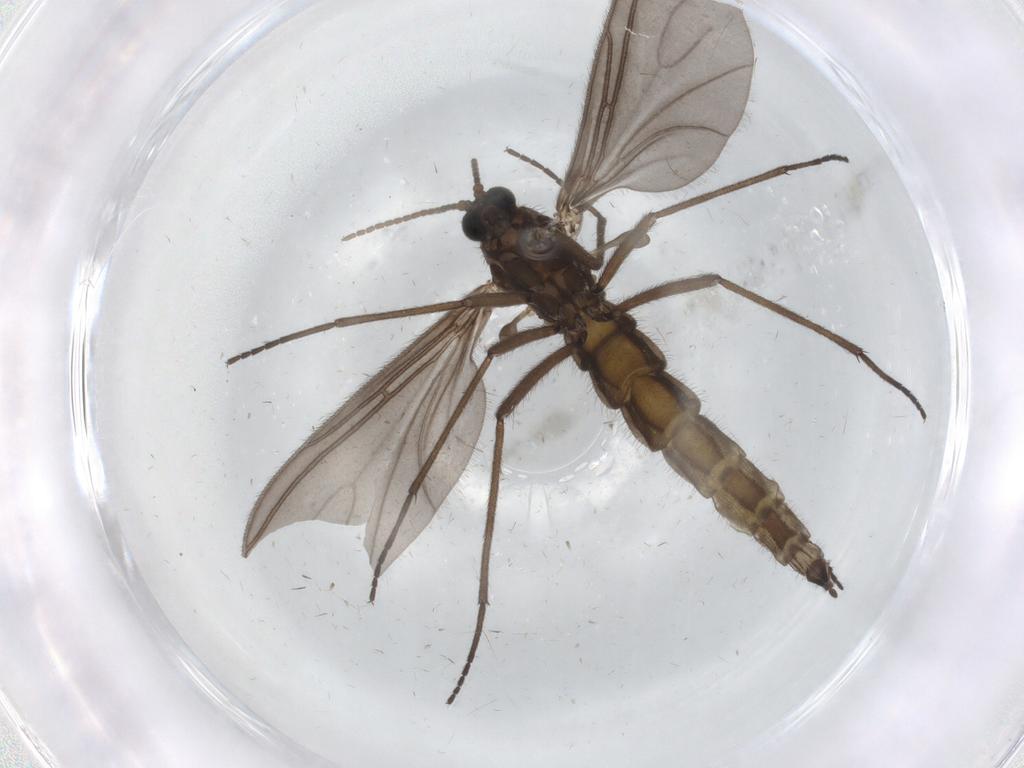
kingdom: Animalia
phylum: Arthropoda
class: Insecta
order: Diptera
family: Sciaridae
